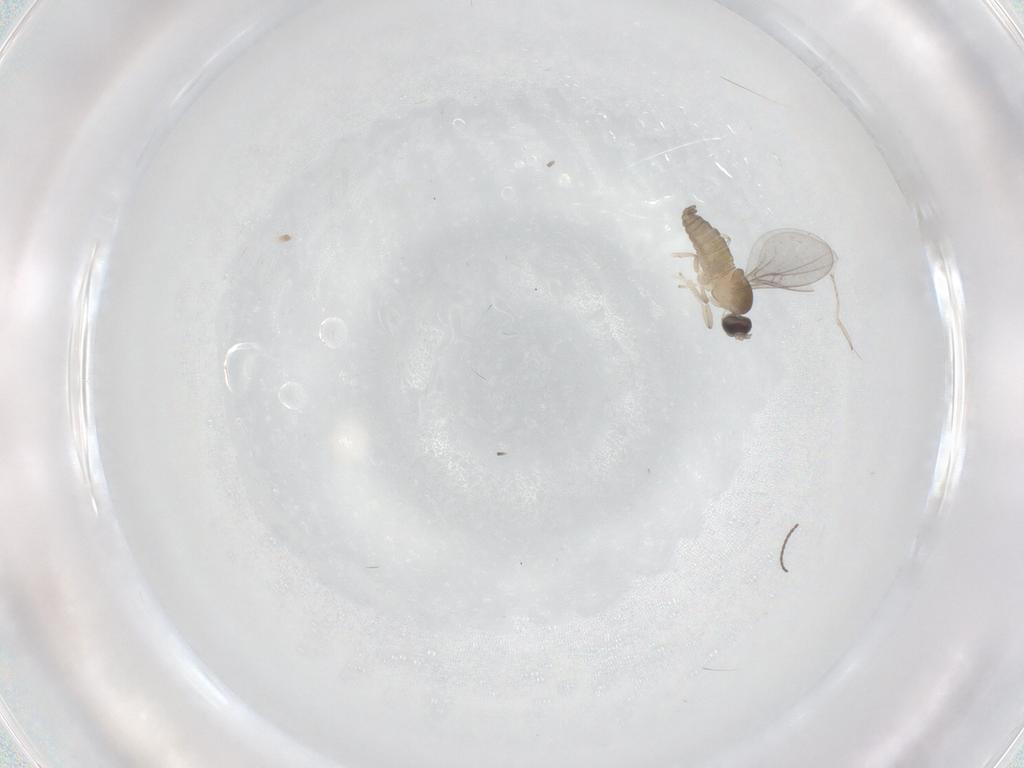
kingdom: Animalia
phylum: Arthropoda
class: Insecta
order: Diptera
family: Cecidomyiidae
